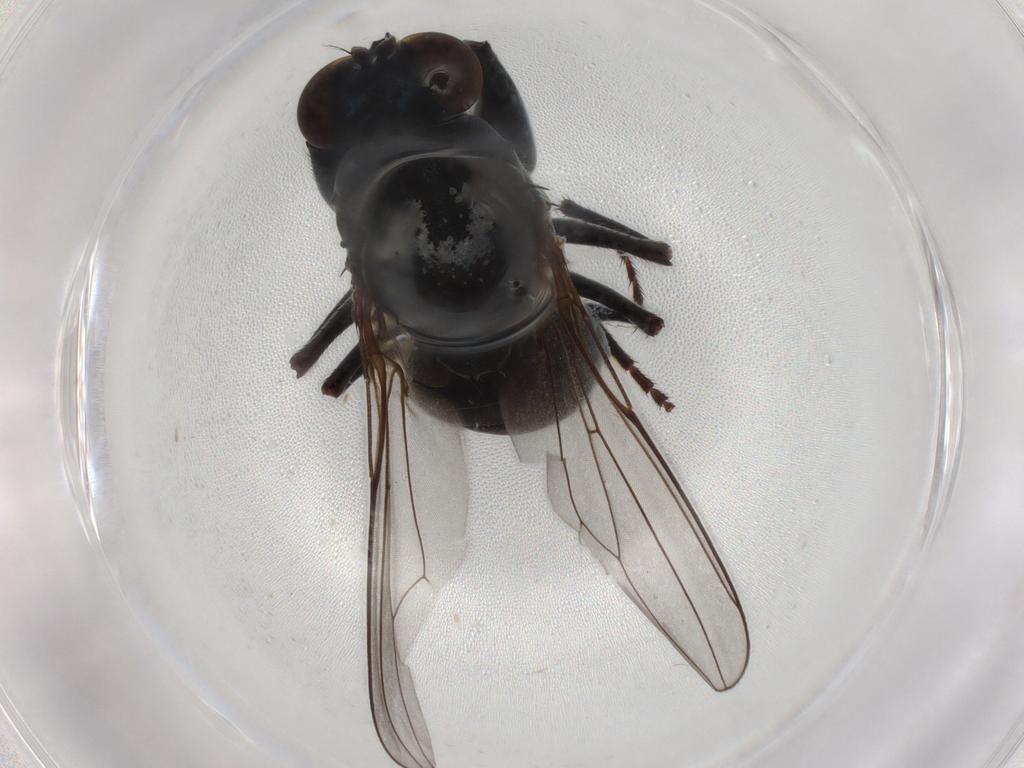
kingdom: Animalia
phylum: Arthropoda
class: Insecta
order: Diptera
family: Ephydridae
